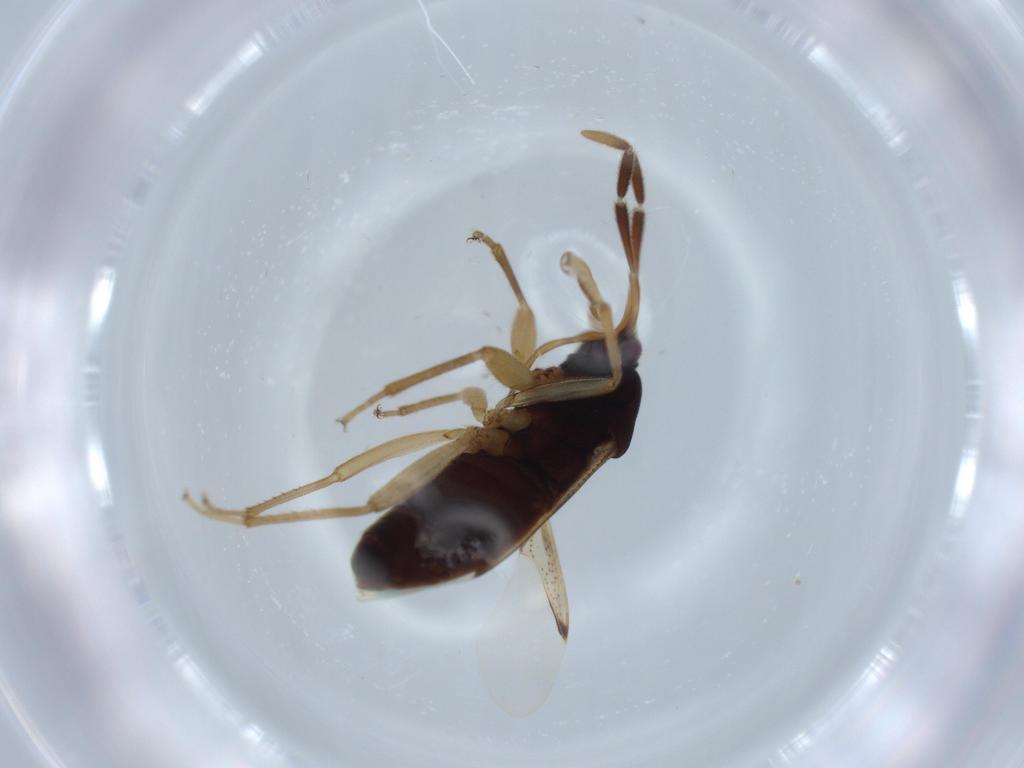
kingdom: Animalia
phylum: Arthropoda
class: Insecta
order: Hemiptera
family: Rhyparochromidae
